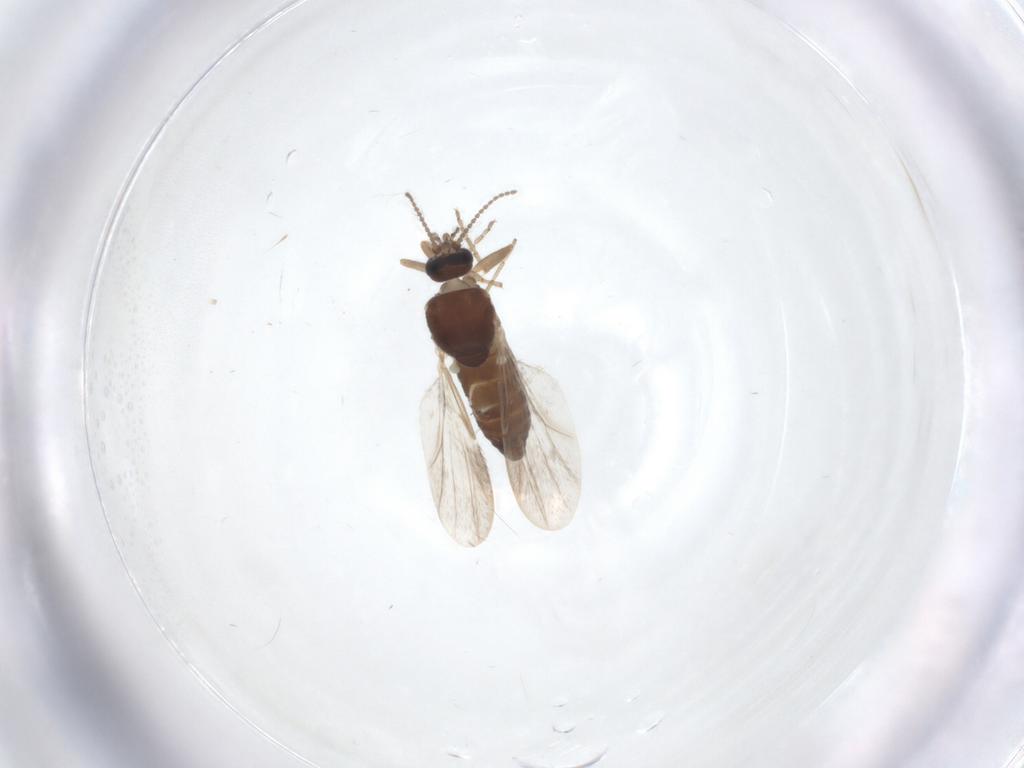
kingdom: Animalia
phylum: Arthropoda
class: Insecta
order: Diptera
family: Ceratopogonidae
